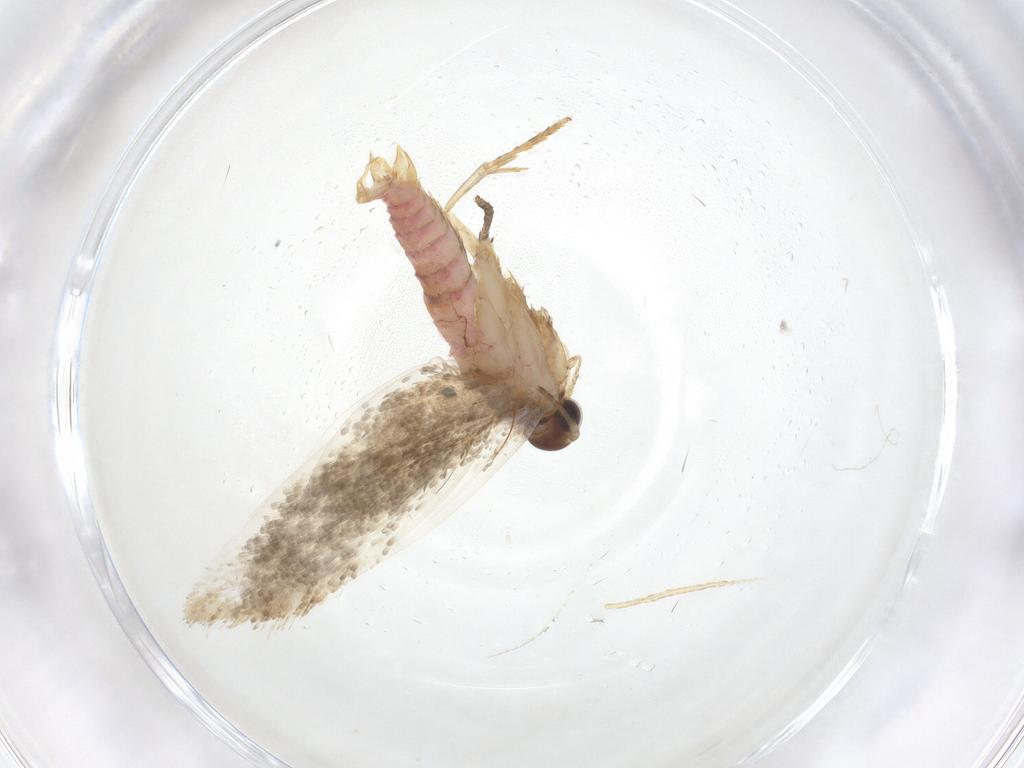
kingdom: Animalia
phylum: Arthropoda
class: Insecta
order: Lepidoptera
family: Oecophoridae
